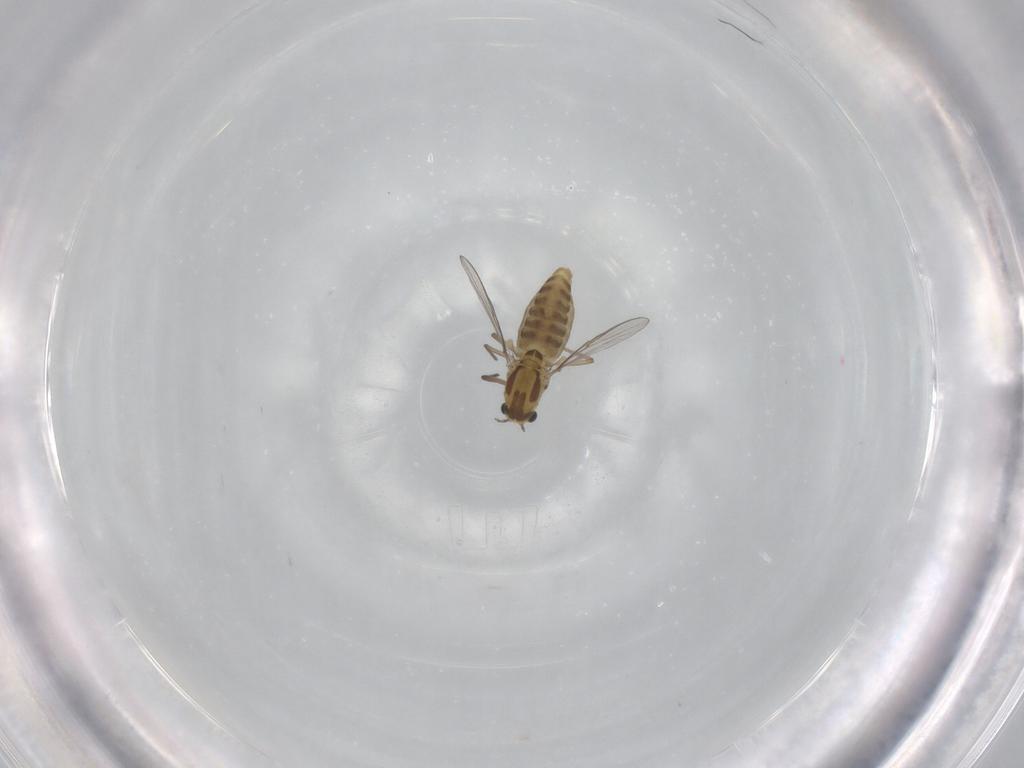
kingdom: Animalia
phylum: Arthropoda
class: Insecta
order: Diptera
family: Chironomidae
